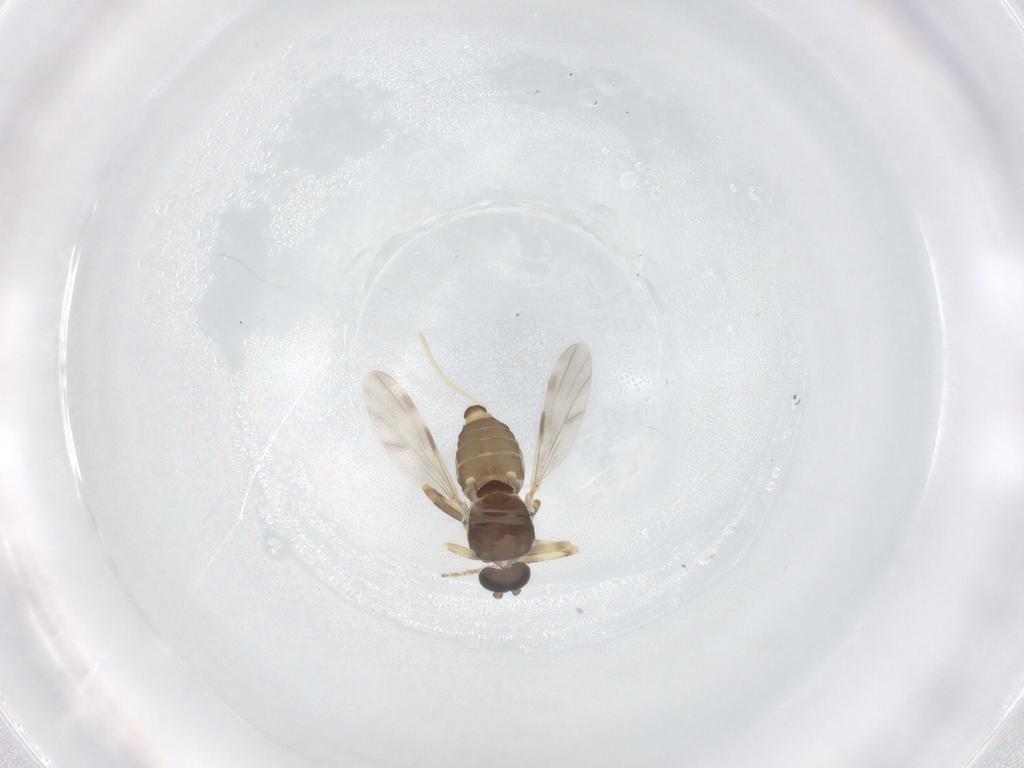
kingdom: Animalia
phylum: Arthropoda
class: Insecta
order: Diptera
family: Ceratopogonidae
